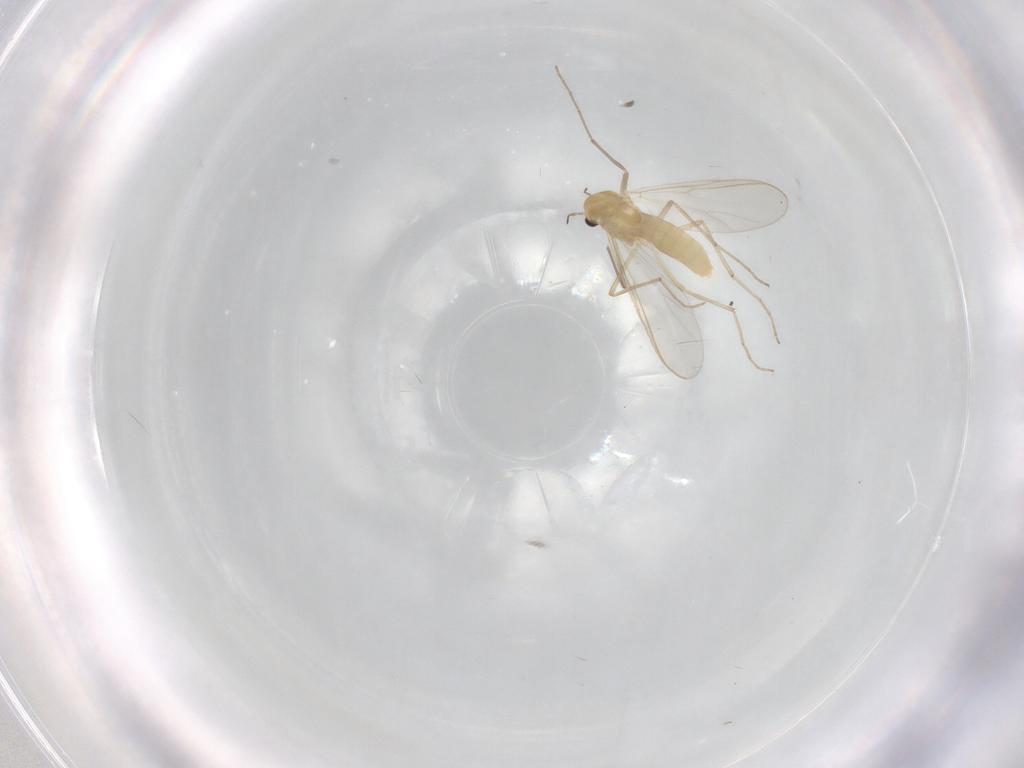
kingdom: Animalia
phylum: Arthropoda
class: Insecta
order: Diptera
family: Chironomidae
